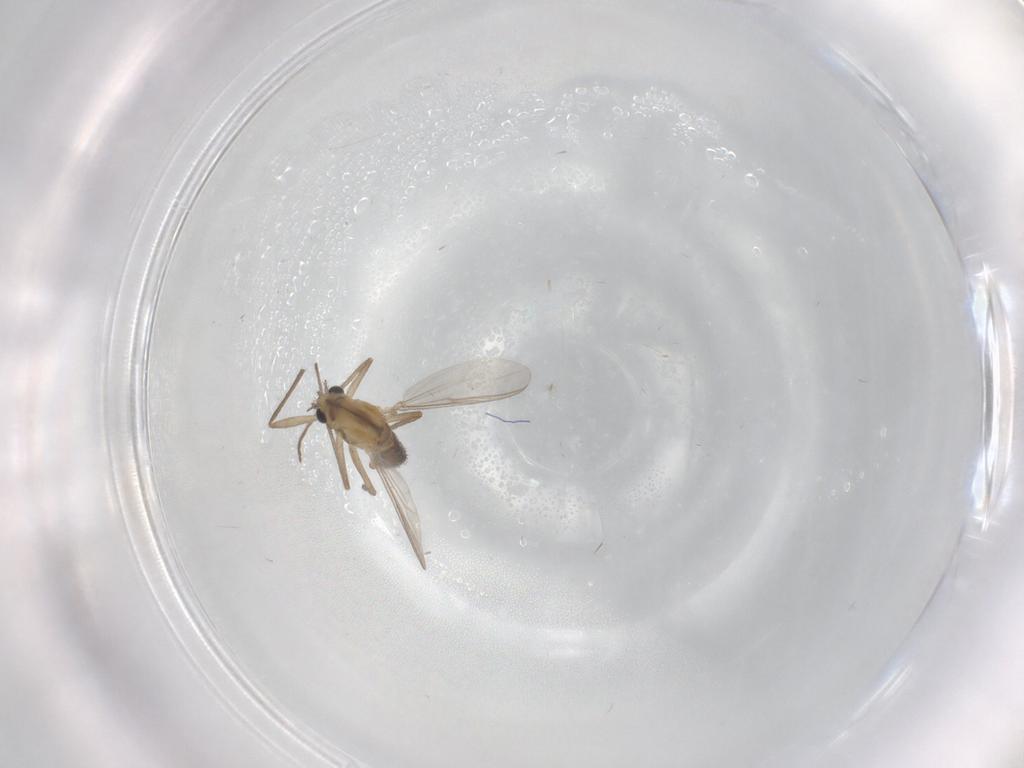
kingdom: Animalia
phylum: Arthropoda
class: Insecta
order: Diptera
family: Chironomidae
